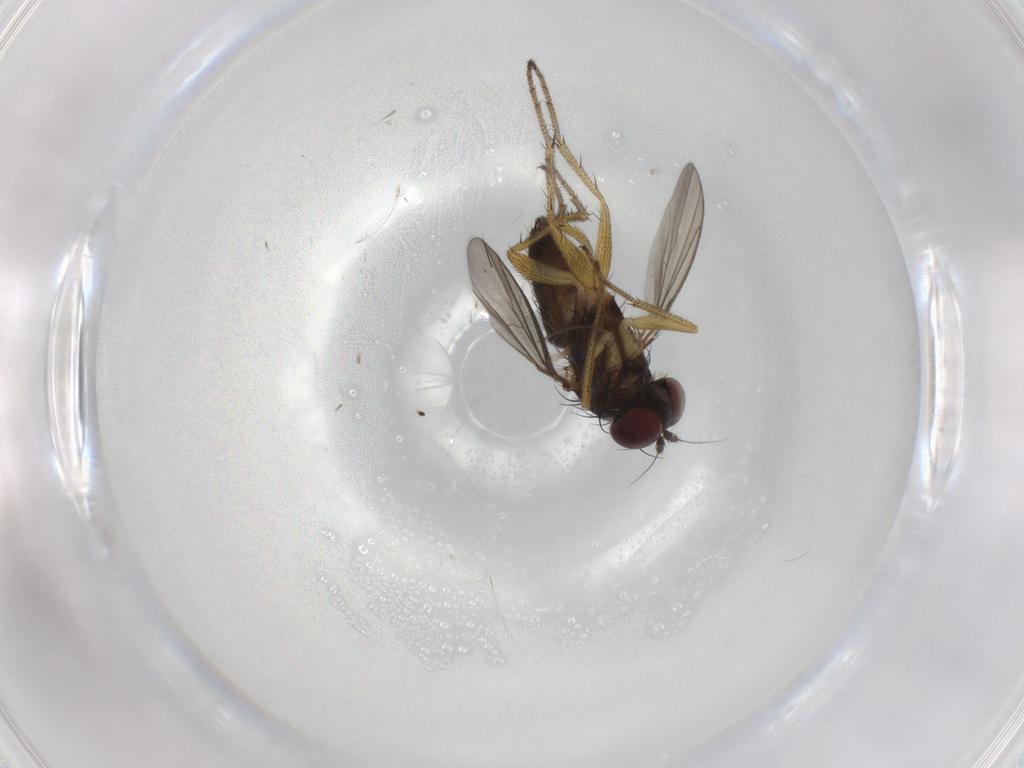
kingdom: Animalia
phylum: Arthropoda
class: Insecta
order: Diptera
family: Dolichopodidae
